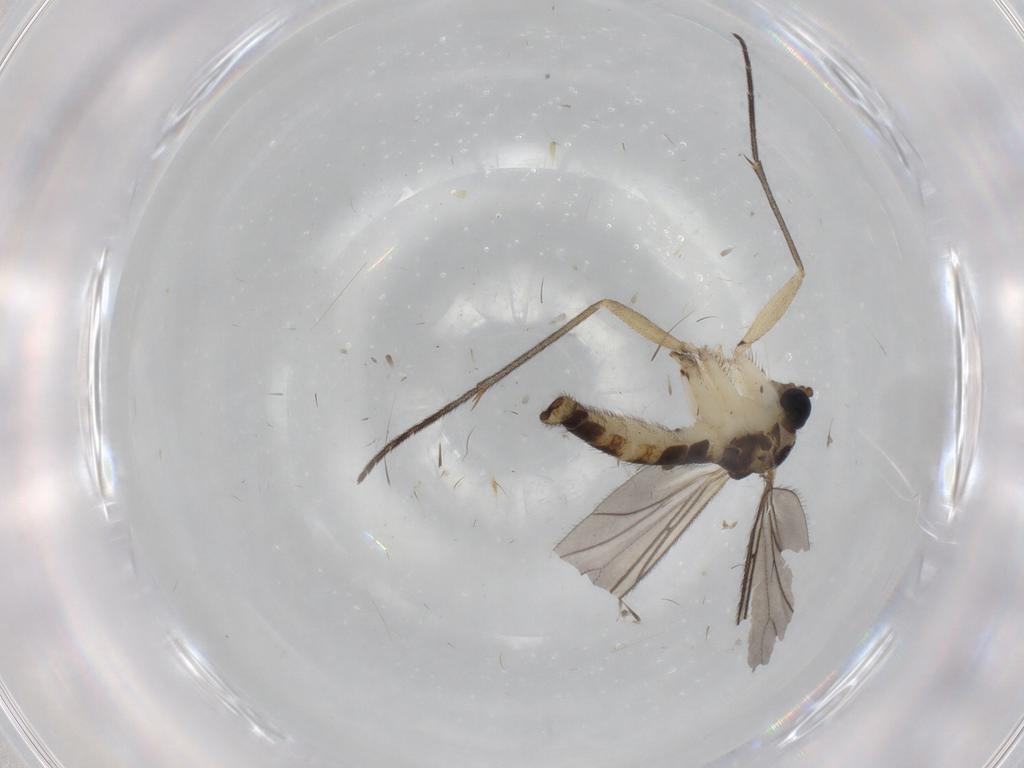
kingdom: Animalia
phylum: Arthropoda
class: Insecta
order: Diptera
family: Sciaridae
